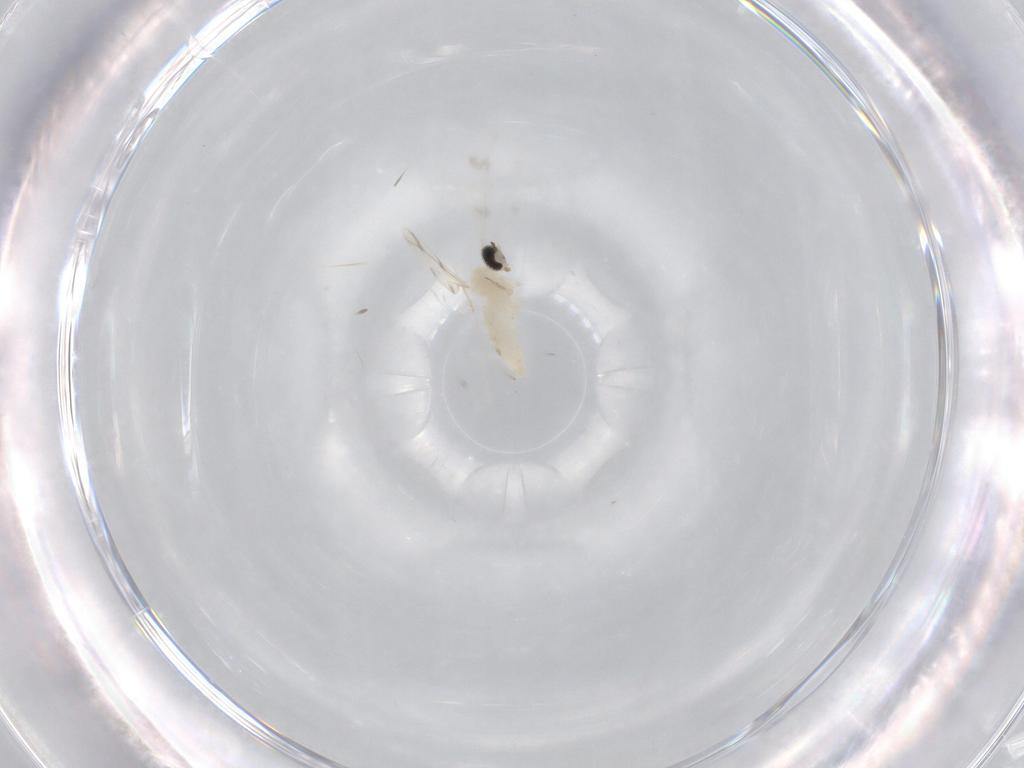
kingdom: Animalia
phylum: Arthropoda
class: Insecta
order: Diptera
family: Cecidomyiidae
